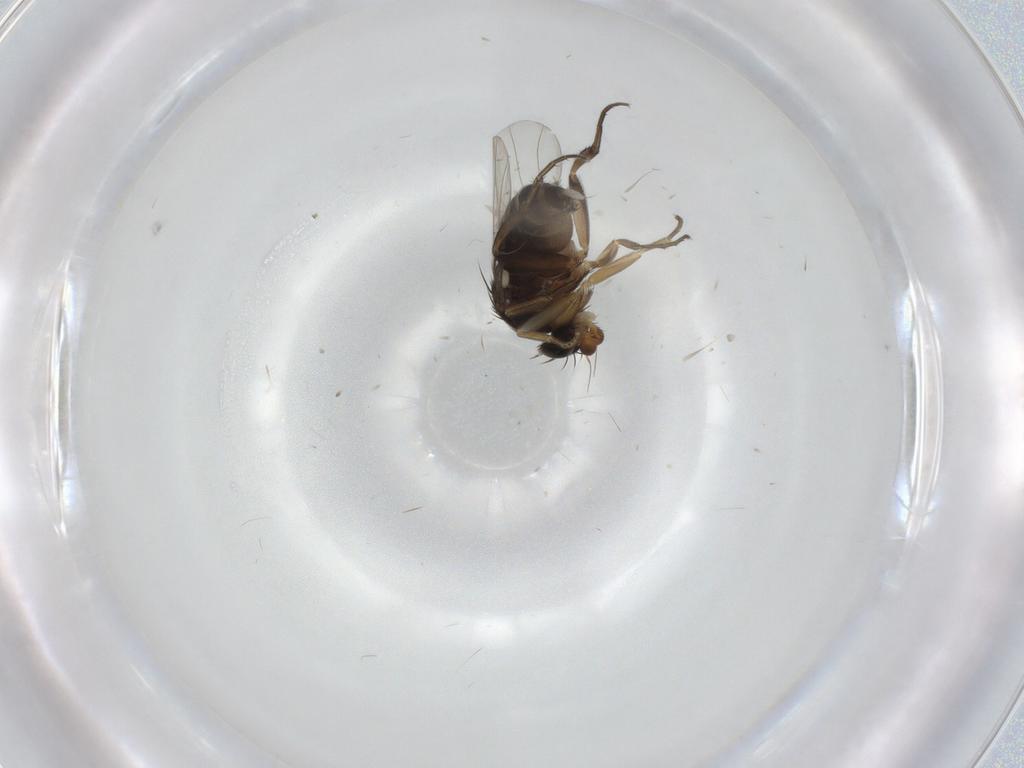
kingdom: Animalia
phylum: Arthropoda
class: Insecta
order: Diptera
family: Phoridae
